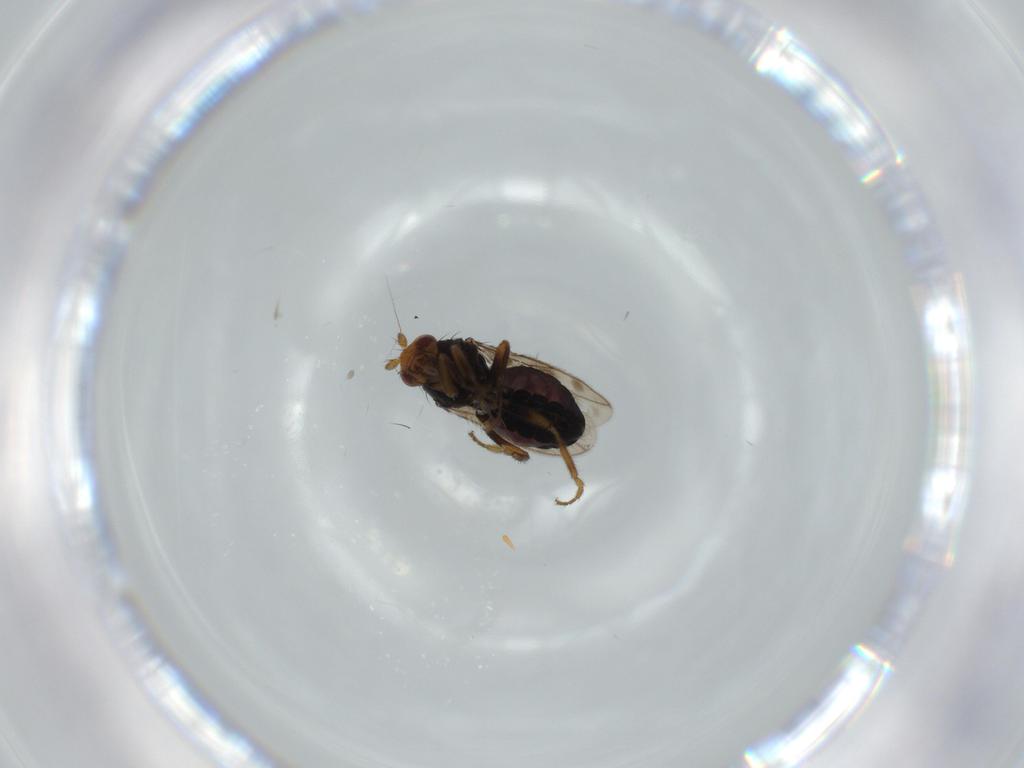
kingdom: Animalia
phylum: Arthropoda
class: Insecta
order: Diptera
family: Sphaeroceridae
